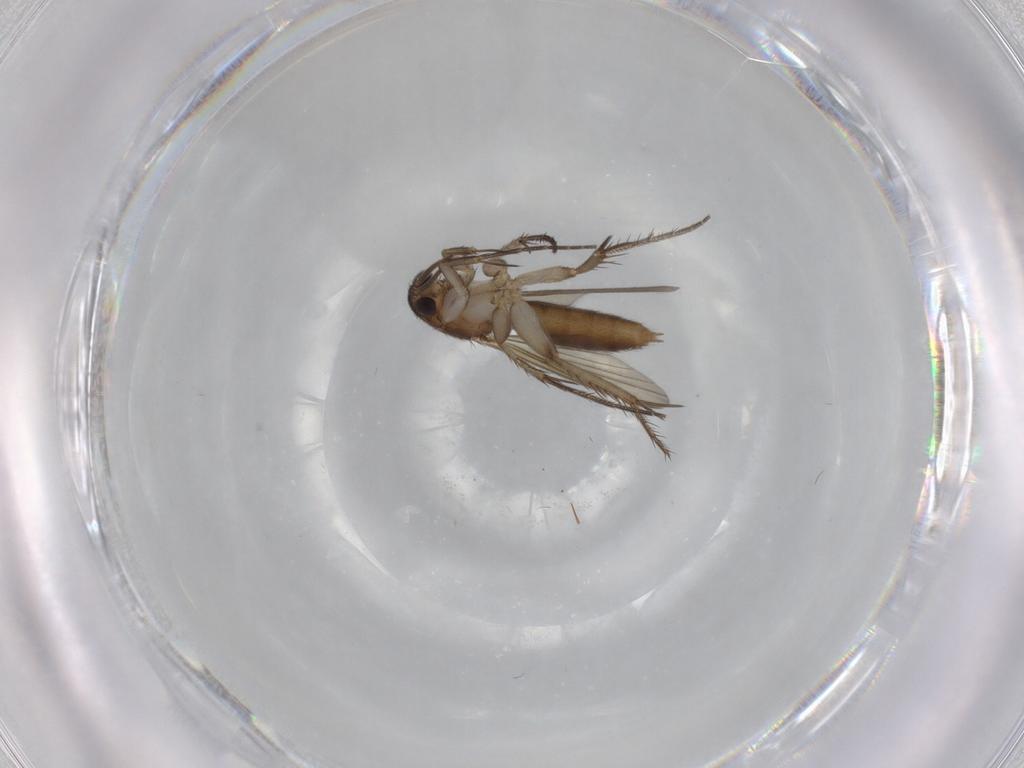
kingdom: Animalia
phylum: Arthropoda
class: Insecta
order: Diptera
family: Mycetophilidae
